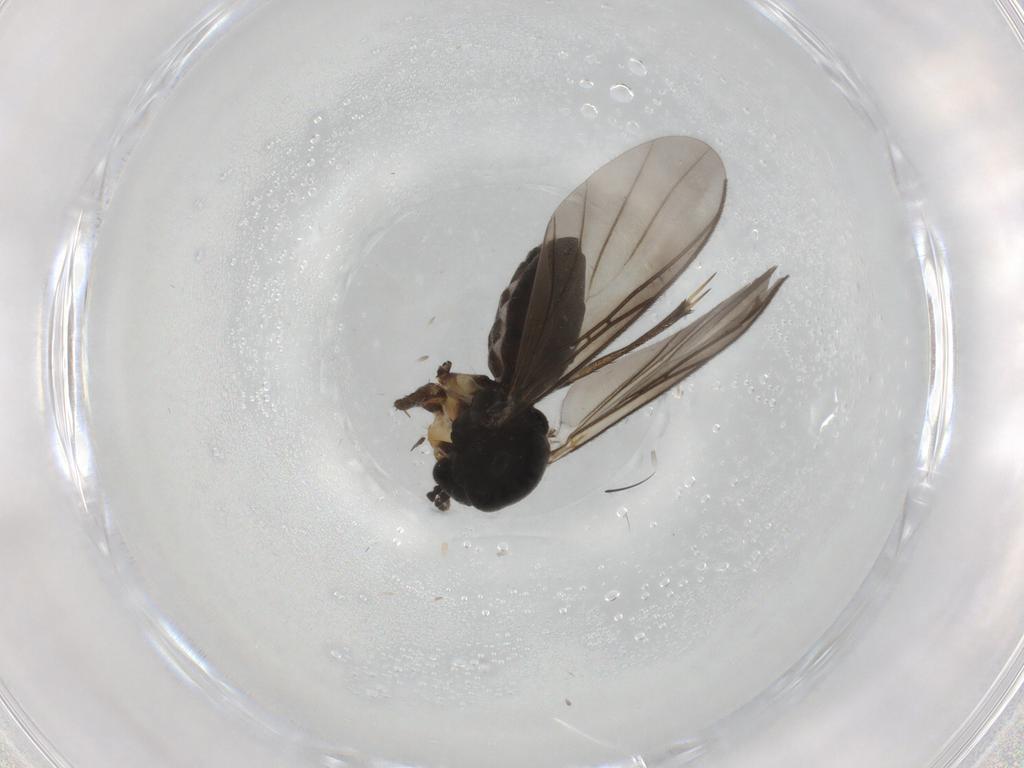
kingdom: Animalia
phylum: Arthropoda
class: Insecta
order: Diptera
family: Mycetophilidae
